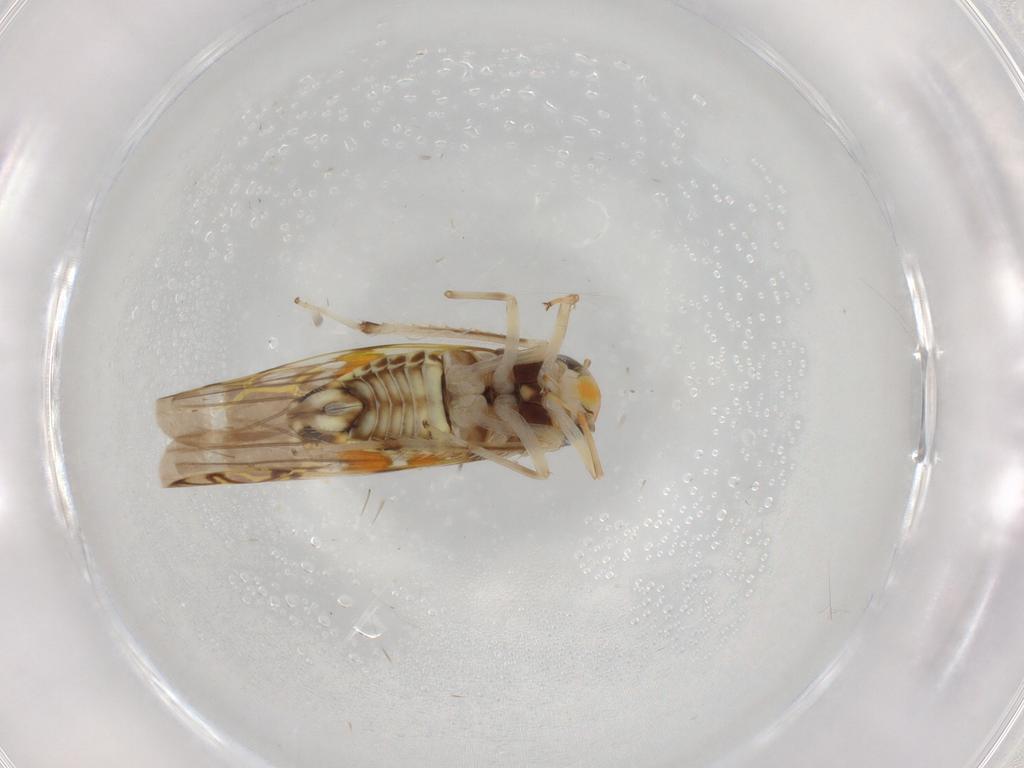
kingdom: Animalia
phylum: Arthropoda
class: Insecta
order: Hemiptera
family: Cicadellidae
